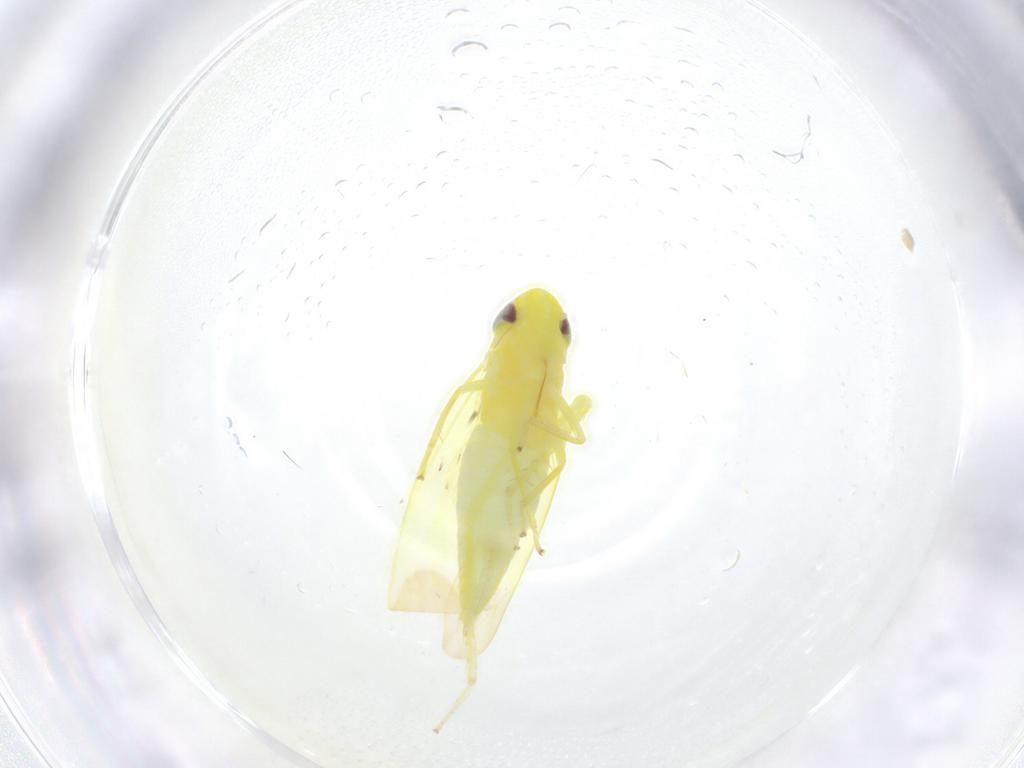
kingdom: Animalia
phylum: Arthropoda
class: Insecta
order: Hemiptera
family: Cicadellidae
